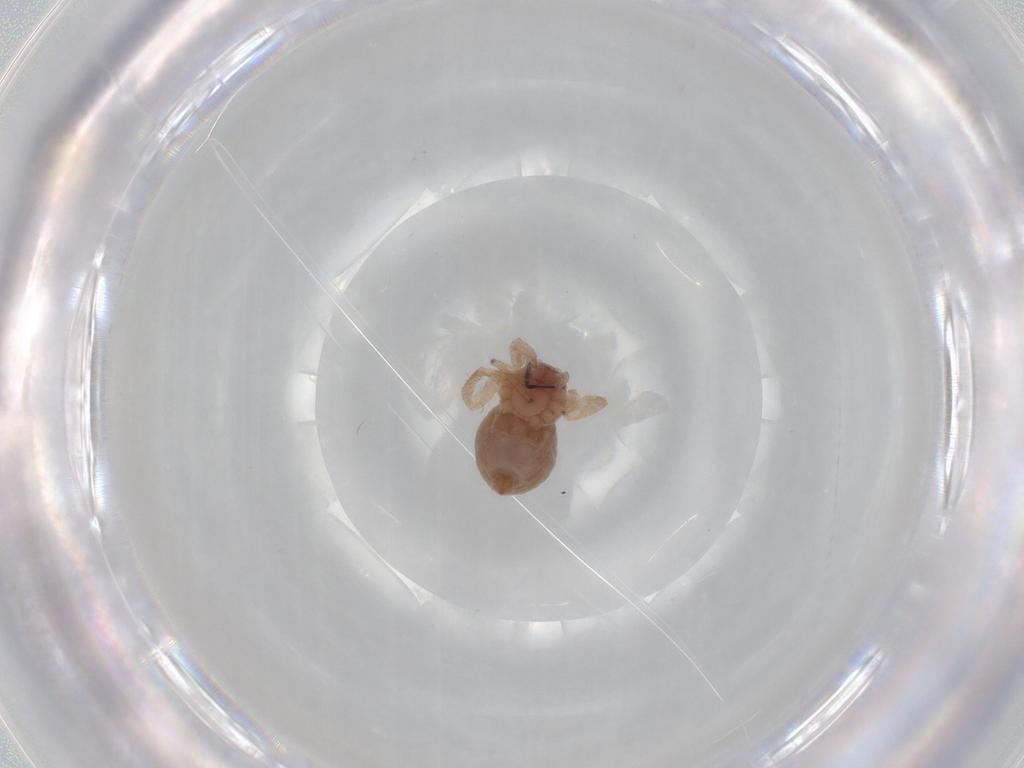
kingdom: Animalia
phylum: Arthropoda
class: Arachnida
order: Araneae
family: Philodromidae
